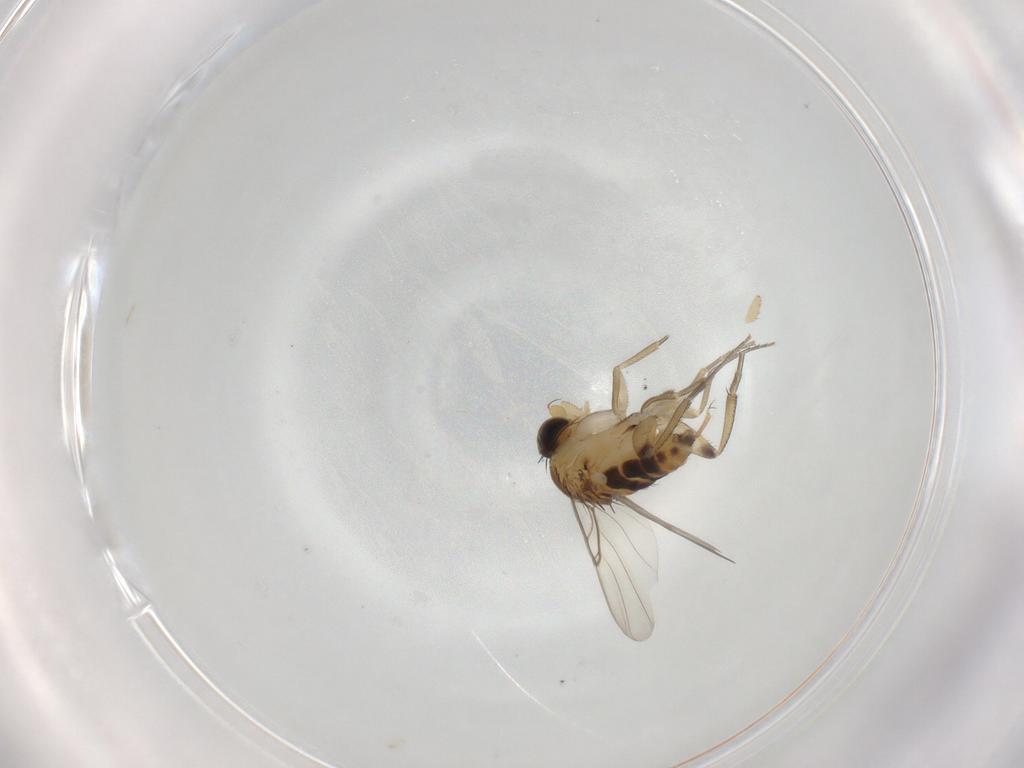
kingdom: Animalia
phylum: Arthropoda
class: Insecta
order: Diptera
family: Phoridae
